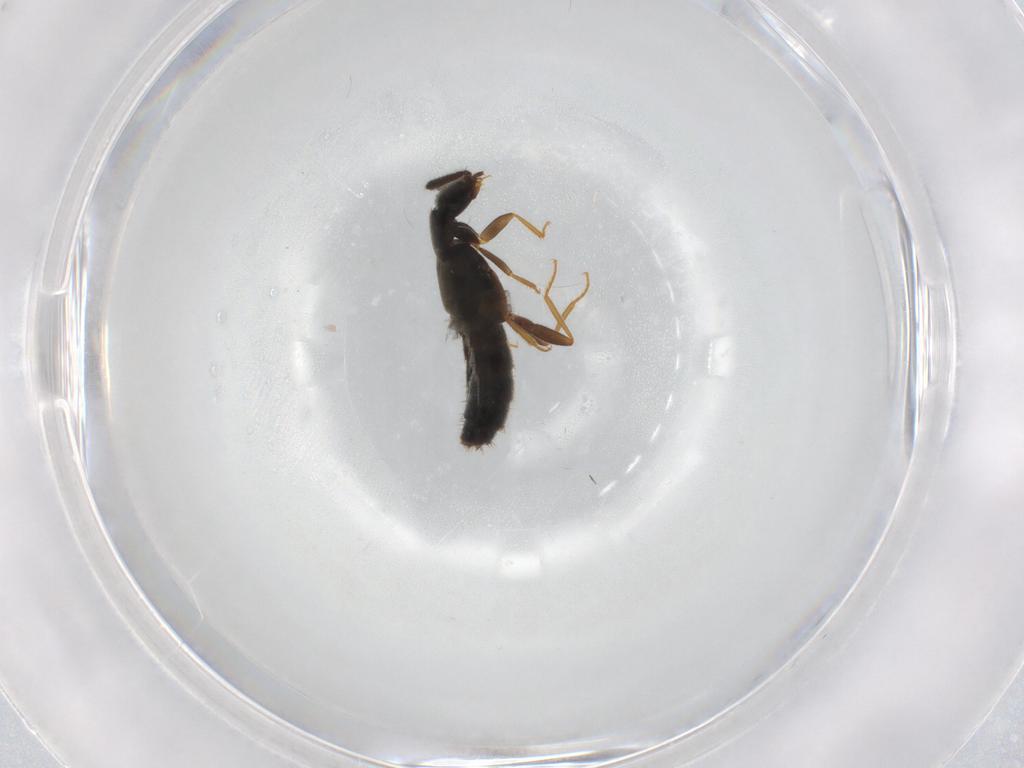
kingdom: Animalia
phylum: Arthropoda
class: Insecta
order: Coleoptera
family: Staphylinidae
